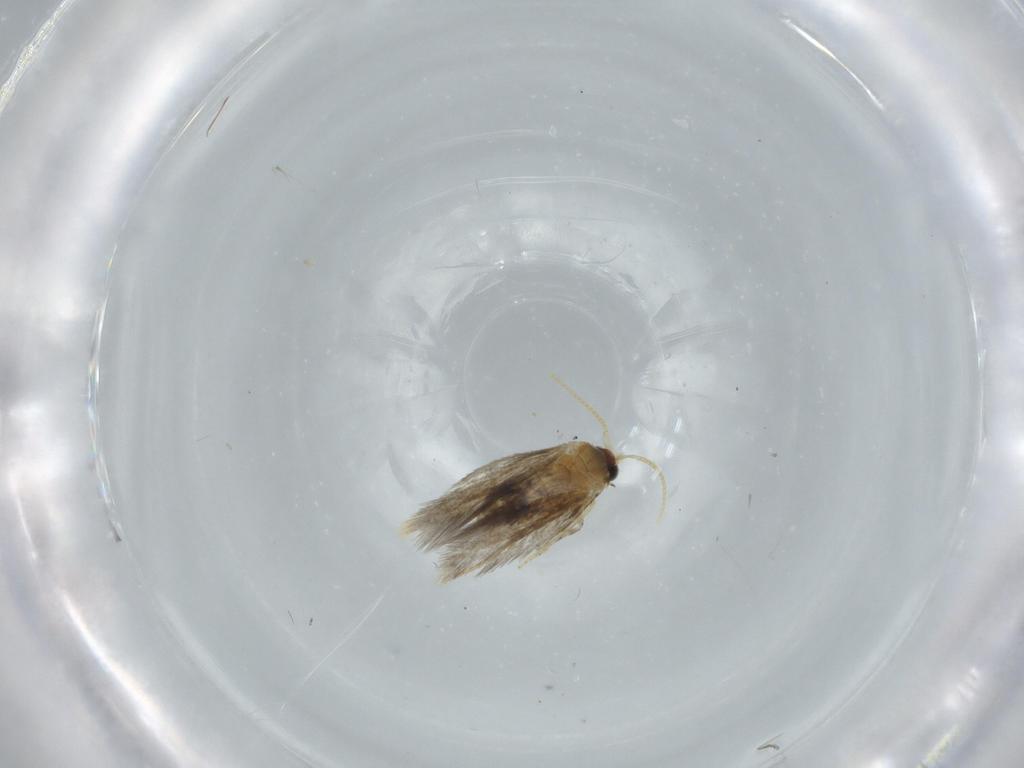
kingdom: Animalia
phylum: Arthropoda
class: Insecta
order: Lepidoptera
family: Copromorphidae
